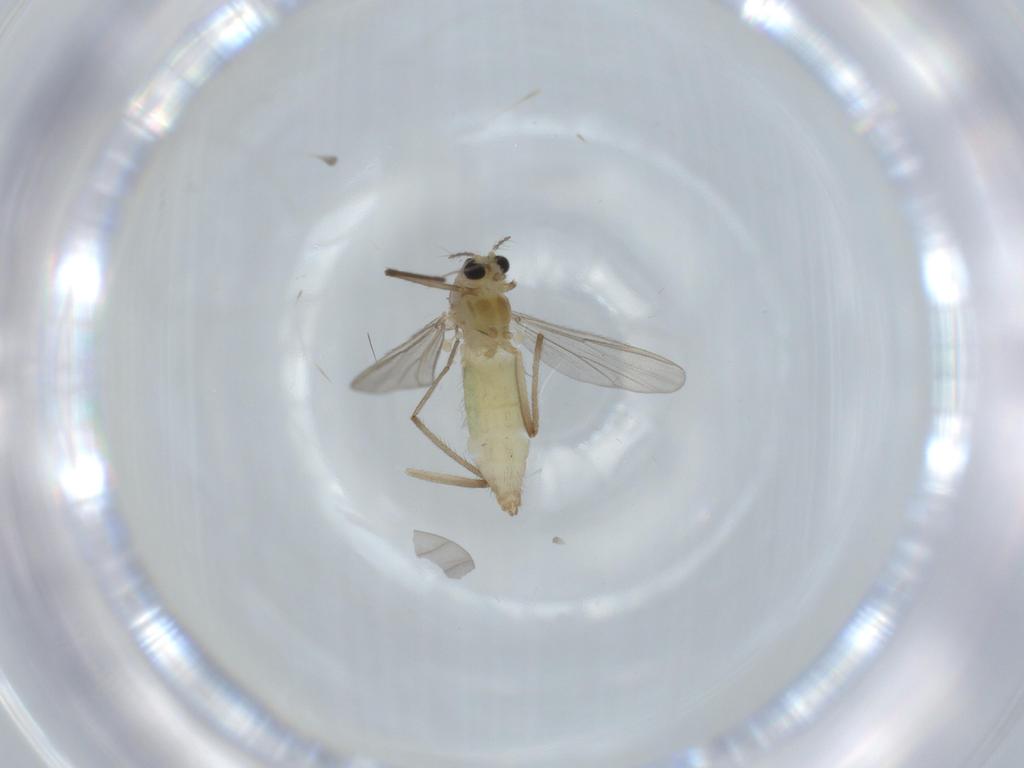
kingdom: Animalia
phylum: Arthropoda
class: Insecta
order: Diptera
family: Chironomidae
